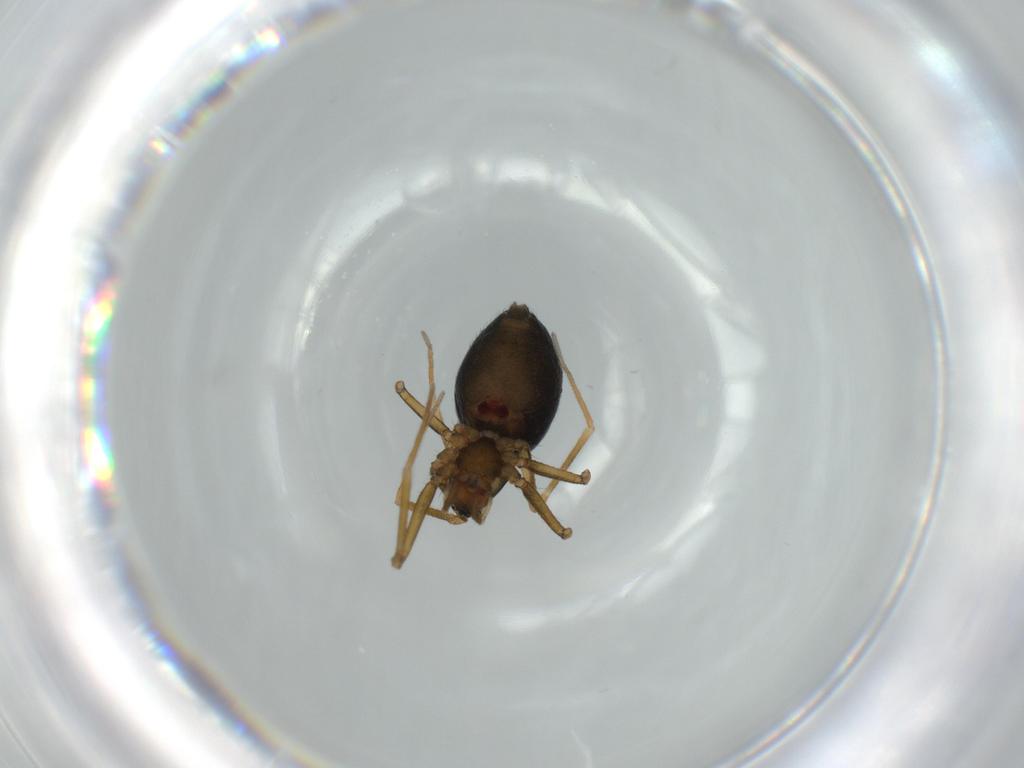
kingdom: Animalia
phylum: Arthropoda
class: Arachnida
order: Araneae
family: Linyphiidae
